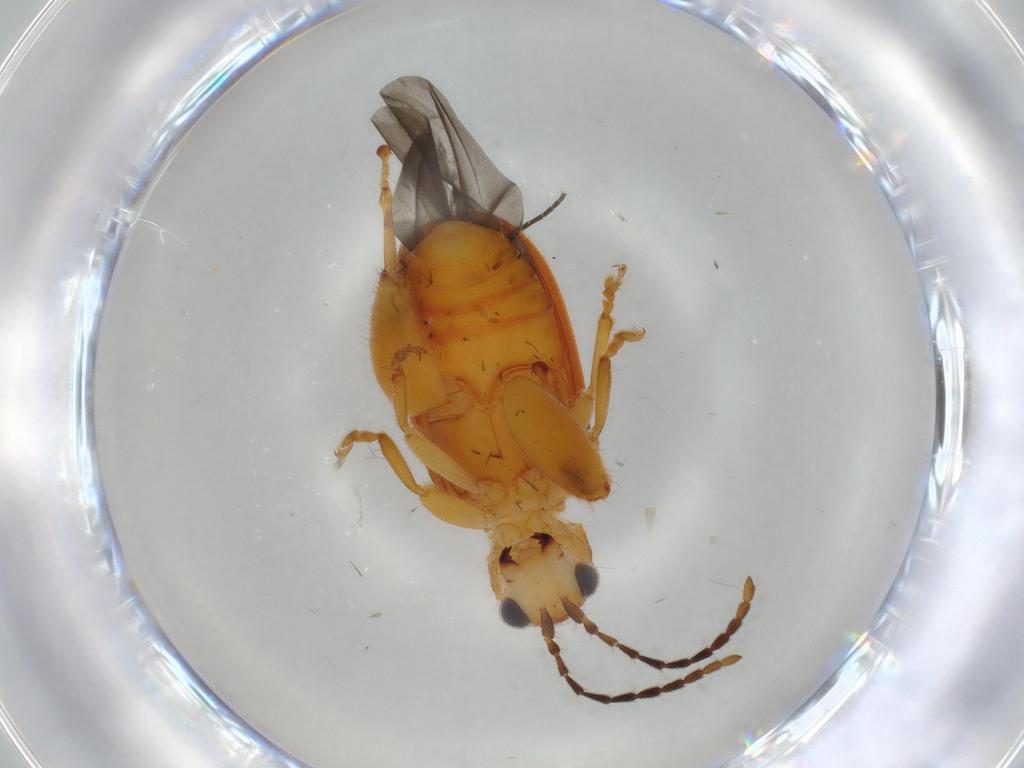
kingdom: Animalia
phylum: Arthropoda
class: Insecta
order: Coleoptera
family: Chrysomelidae
